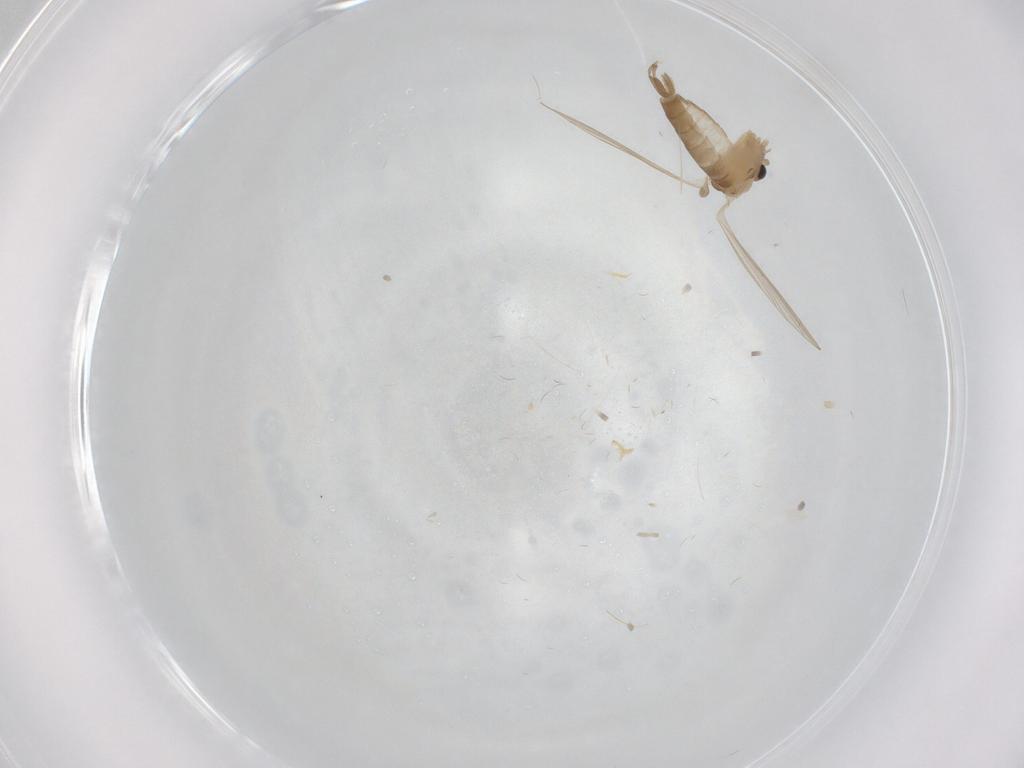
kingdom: Animalia
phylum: Arthropoda
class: Insecta
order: Diptera
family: Psychodidae
